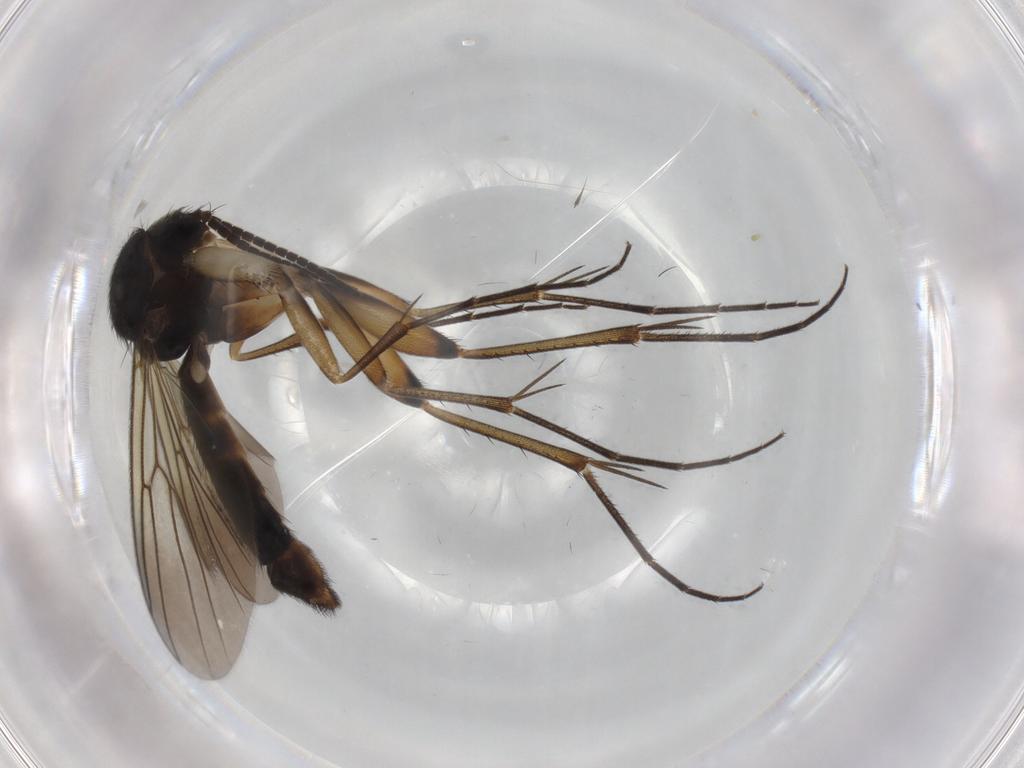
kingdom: Animalia
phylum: Arthropoda
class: Insecta
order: Diptera
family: Mycetophilidae
